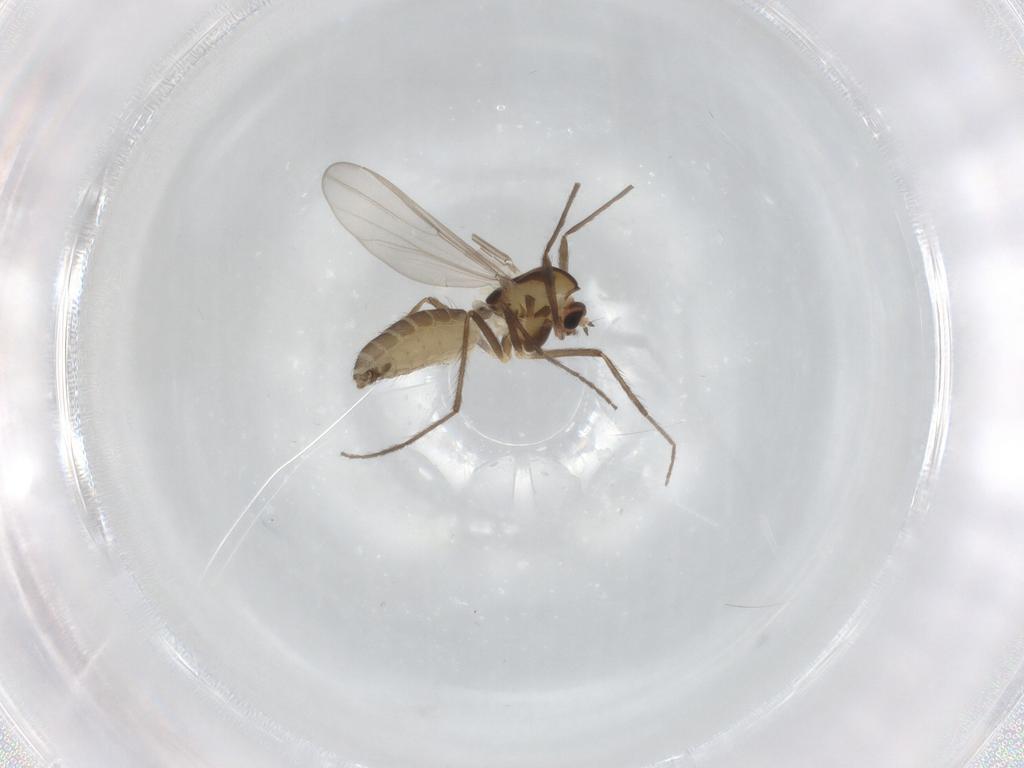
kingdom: Animalia
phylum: Arthropoda
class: Insecta
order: Diptera
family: Chironomidae
